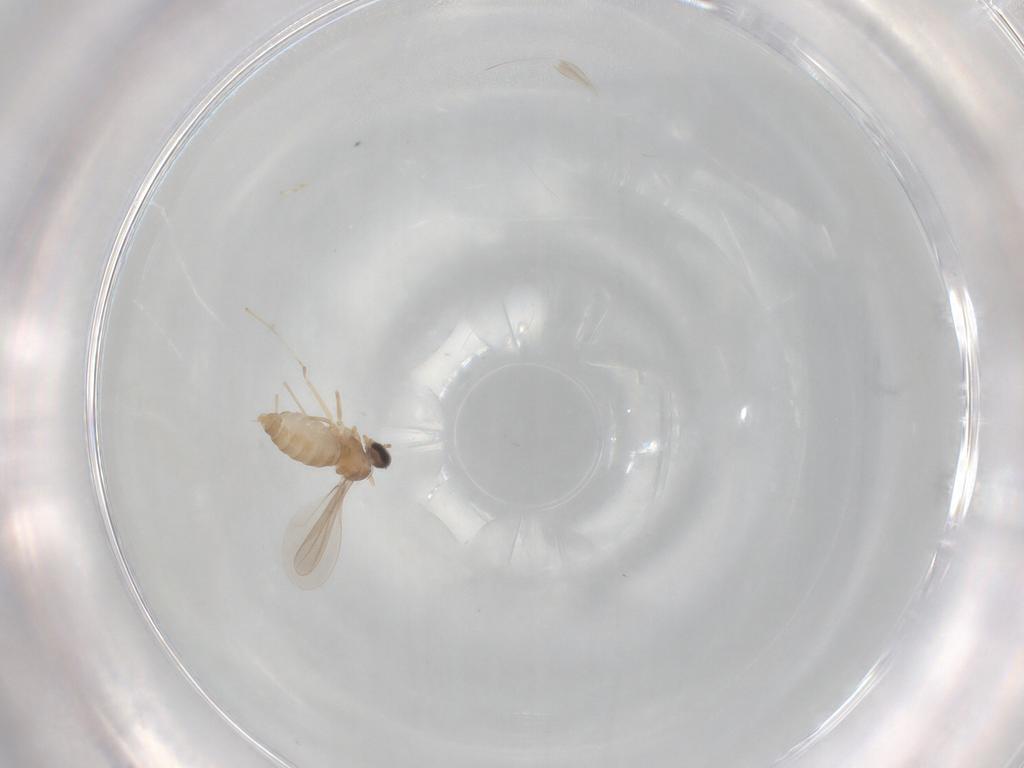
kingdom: Animalia
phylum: Arthropoda
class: Insecta
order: Diptera
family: Cecidomyiidae
